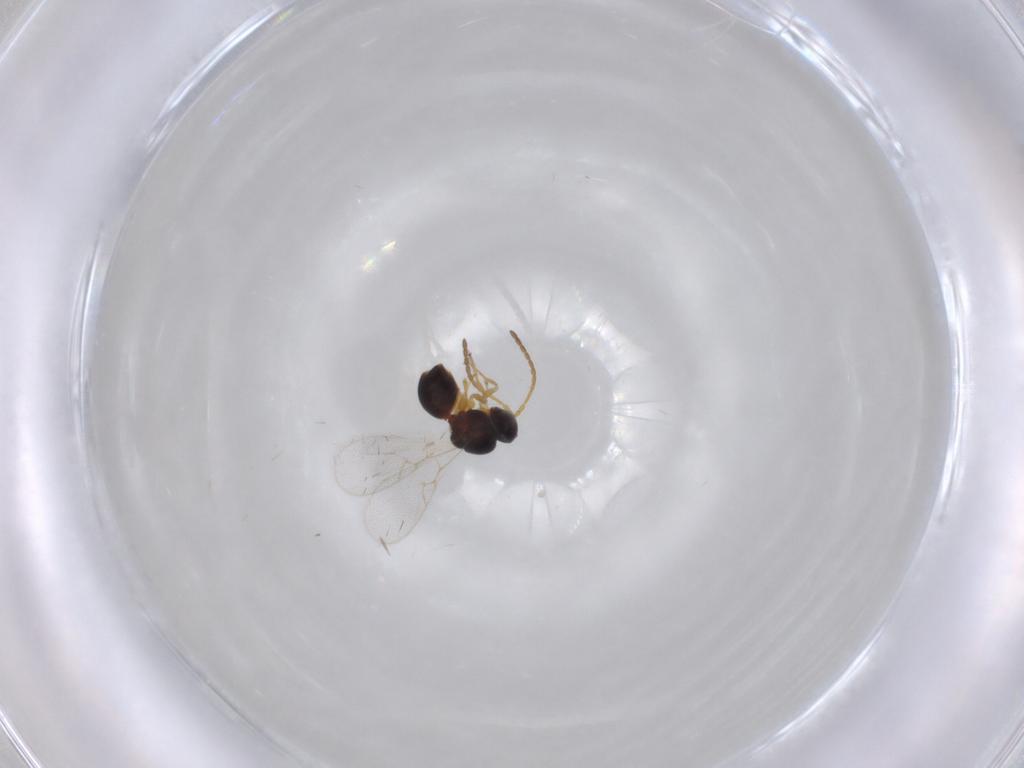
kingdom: Animalia
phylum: Arthropoda
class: Insecta
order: Hymenoptera
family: Figitidae
